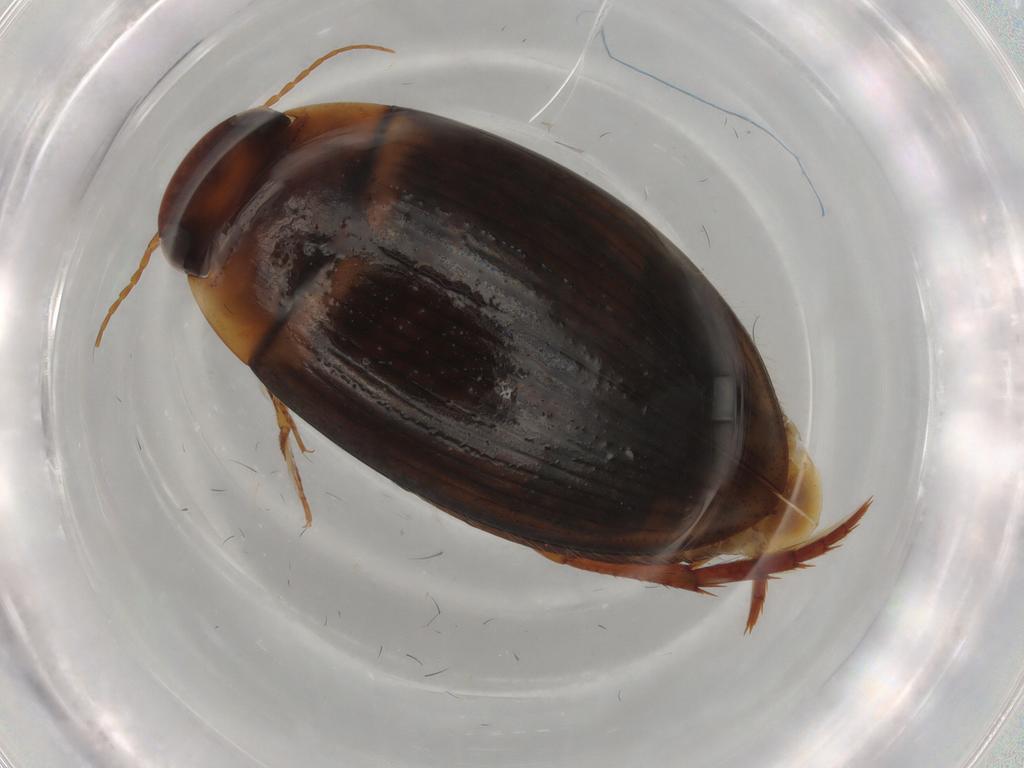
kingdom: Animalia
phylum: Arthropoda
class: Insecta
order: Coleoptera
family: Dytiscidae
